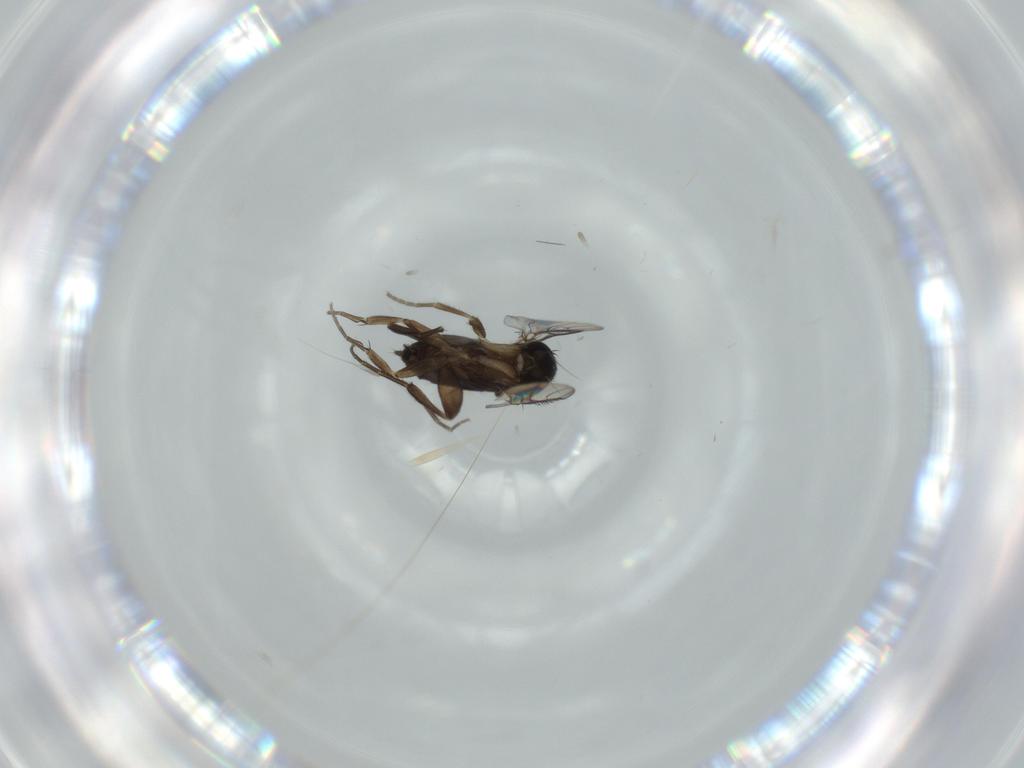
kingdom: Animalia
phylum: Arthropoda
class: Insecta
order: Diptera
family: Phoridae
